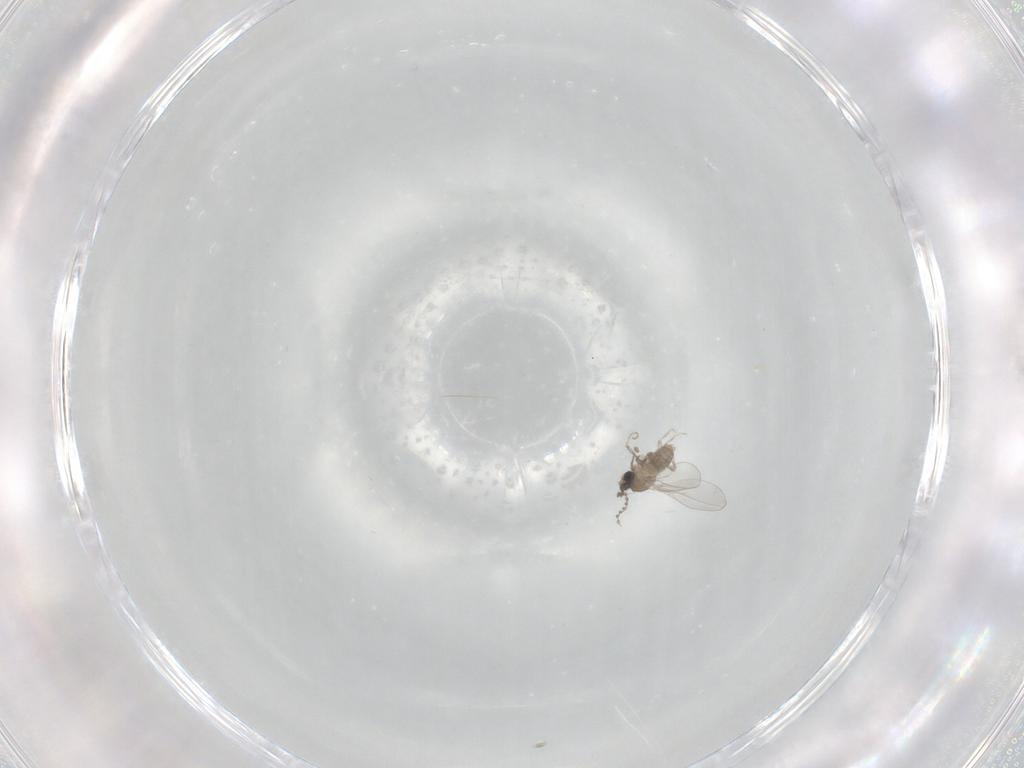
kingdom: Animalia
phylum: Arthropoda
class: Insecta
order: Diptera
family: Cecidomyiidae
